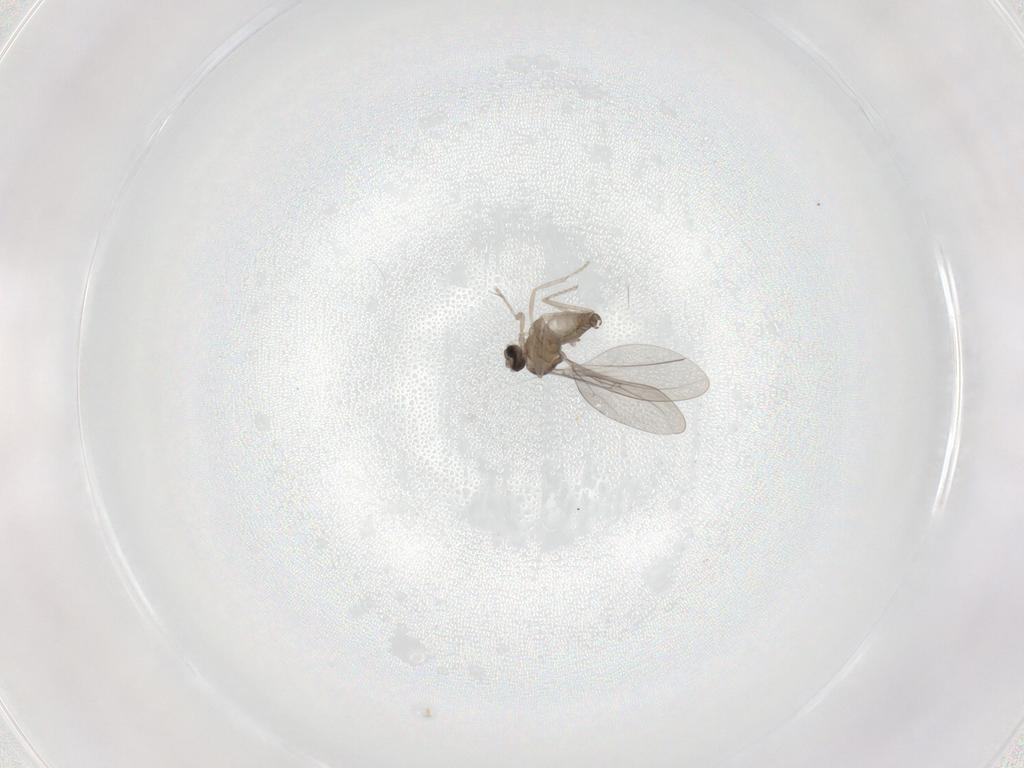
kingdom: Animalia
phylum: Arthropoda
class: Insecta
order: Diptera
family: Cecidomyiidae
